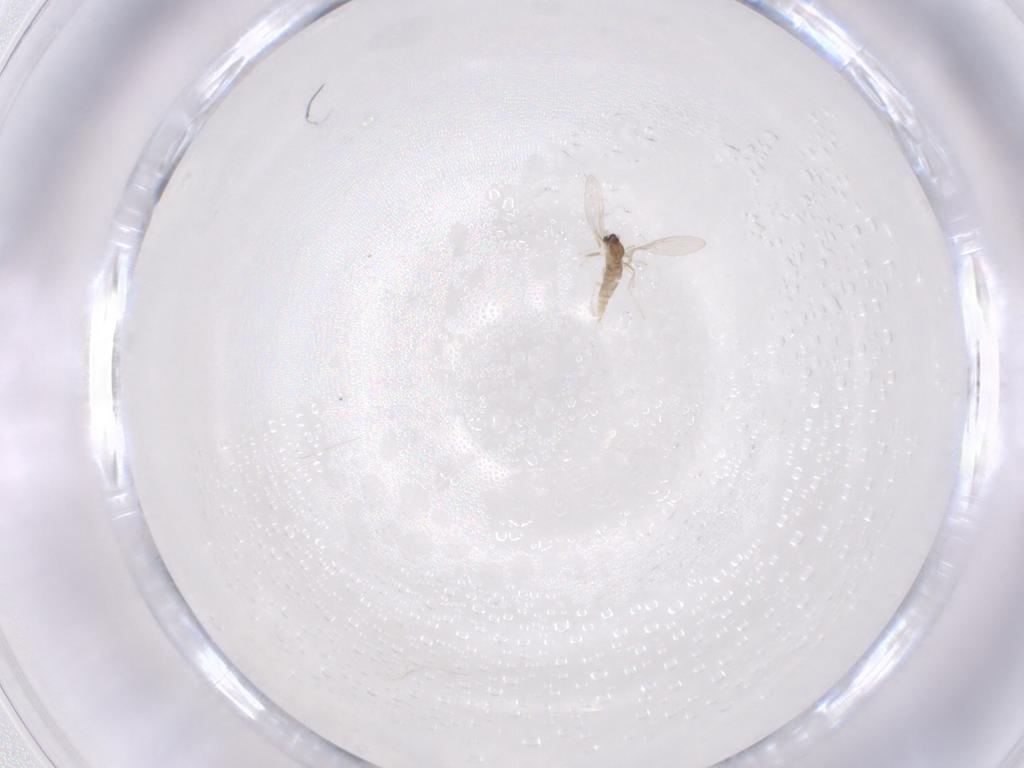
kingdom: Animalia
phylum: Arthropoda
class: Insecta
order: Diptera
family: Cecidomyiidae
